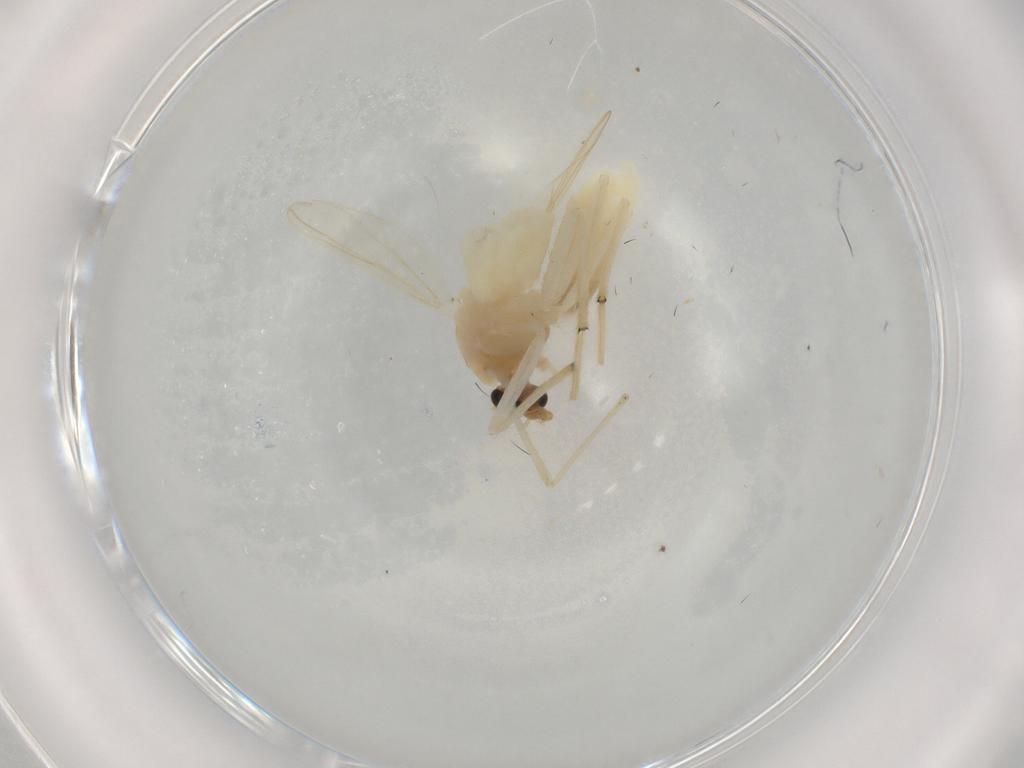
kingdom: Animalia
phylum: Arthropoda
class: Insecta
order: Diptera
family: Chironomidae
